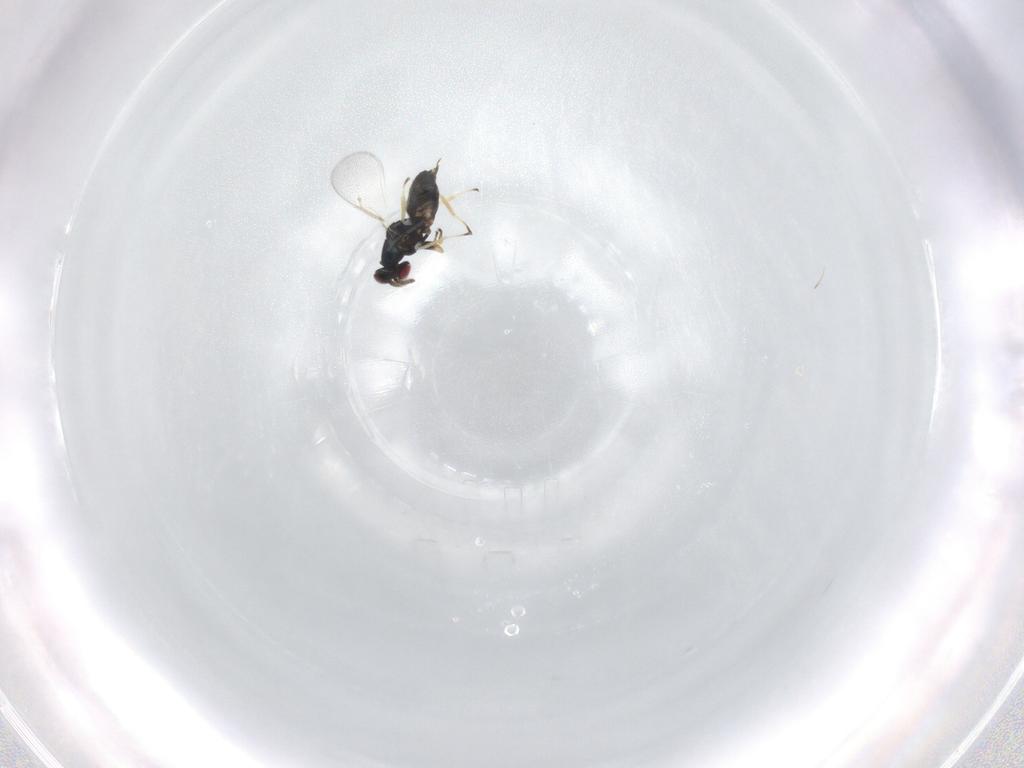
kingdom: Animalia
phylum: Arthropoda
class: Insecta
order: Hymenoptera
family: Eulophidae
